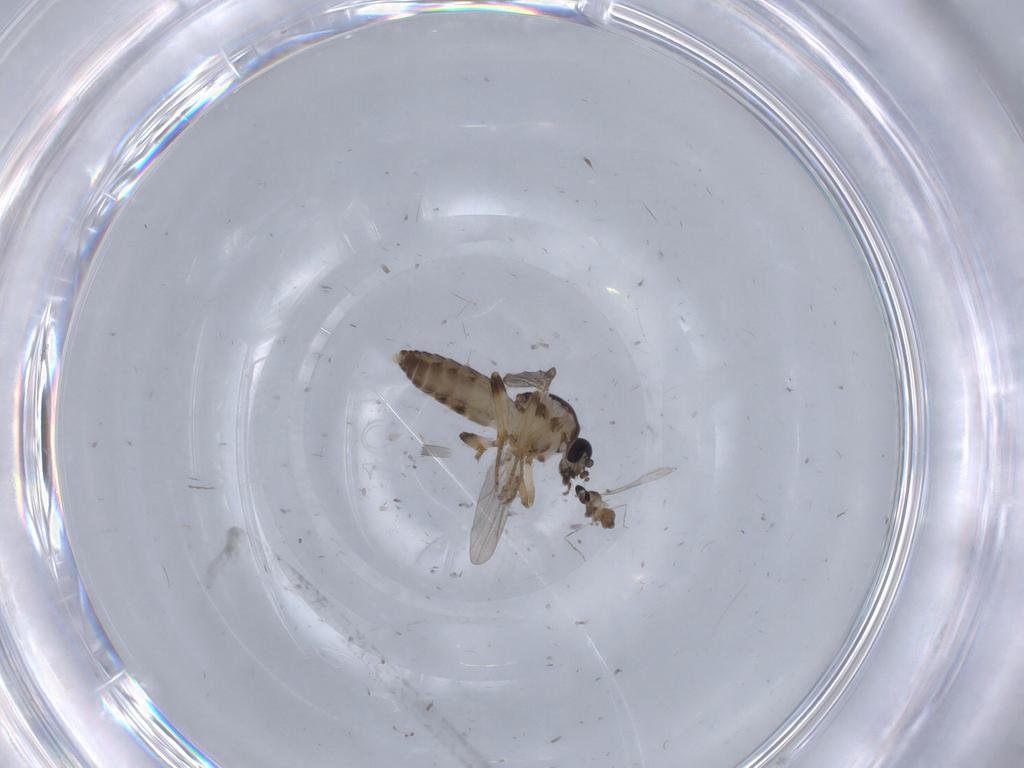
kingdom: Animalia
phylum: Arthropoda
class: Insecta
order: Diptera
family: Ceratopogonidae
